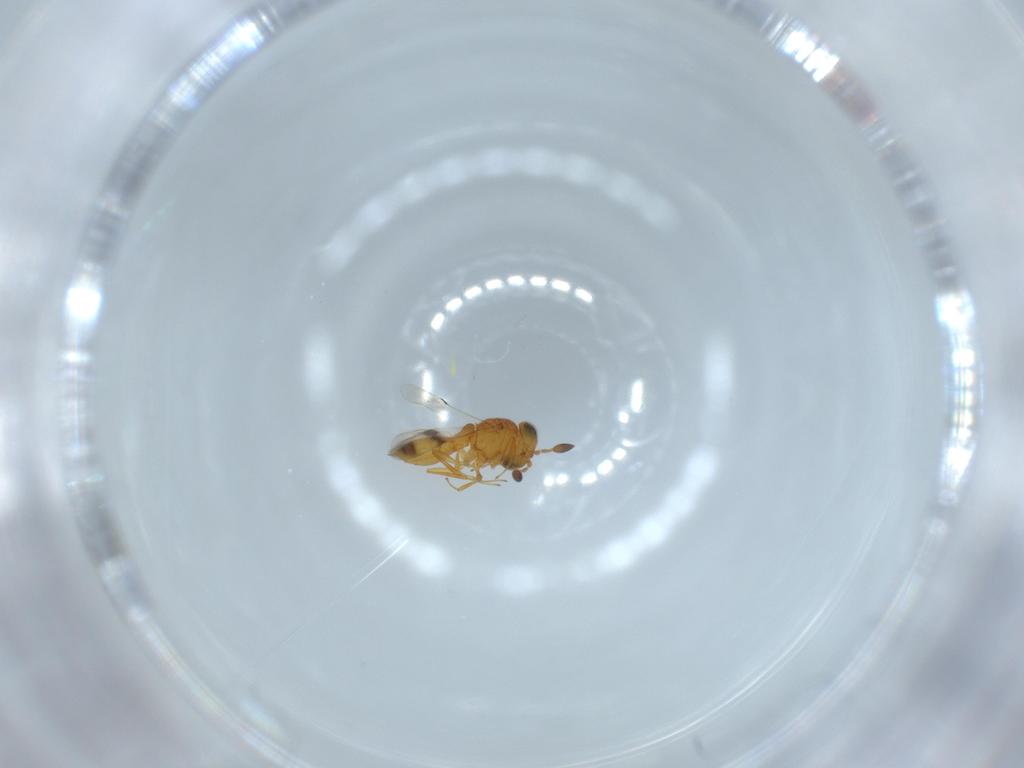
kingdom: Animalia
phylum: Arthropoda
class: Insecta
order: Hymenoptera
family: Scelionidae
